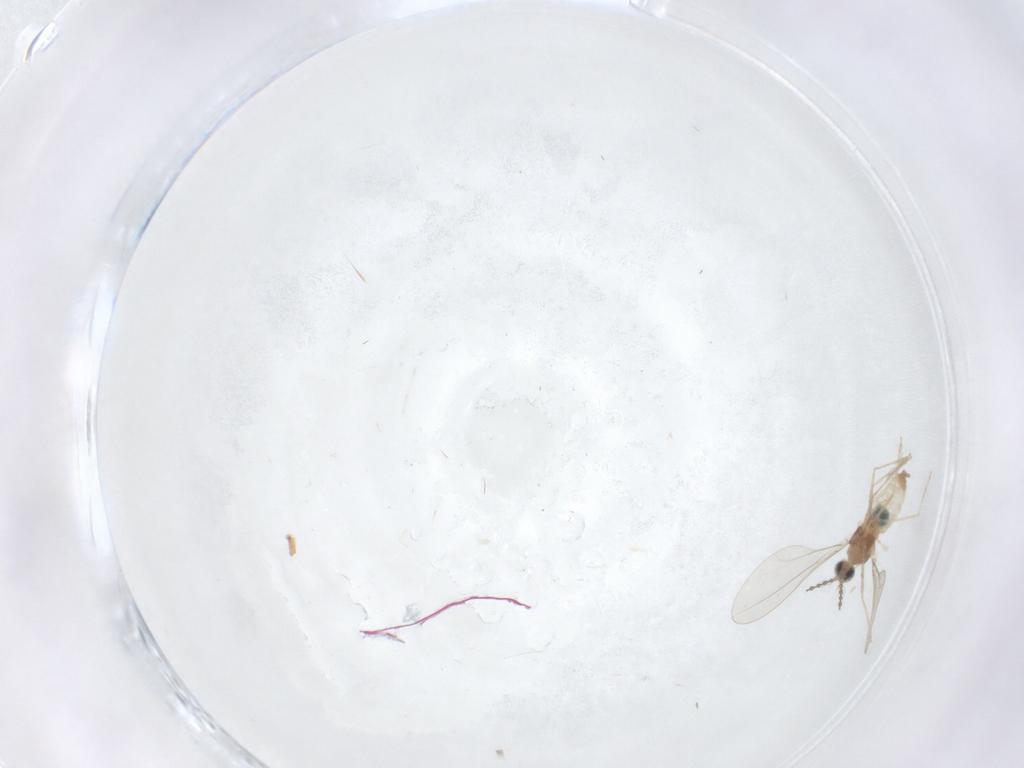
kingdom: Animalia
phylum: Arthropoda
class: Insecta
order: Diptera
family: Cecidomyiidae
